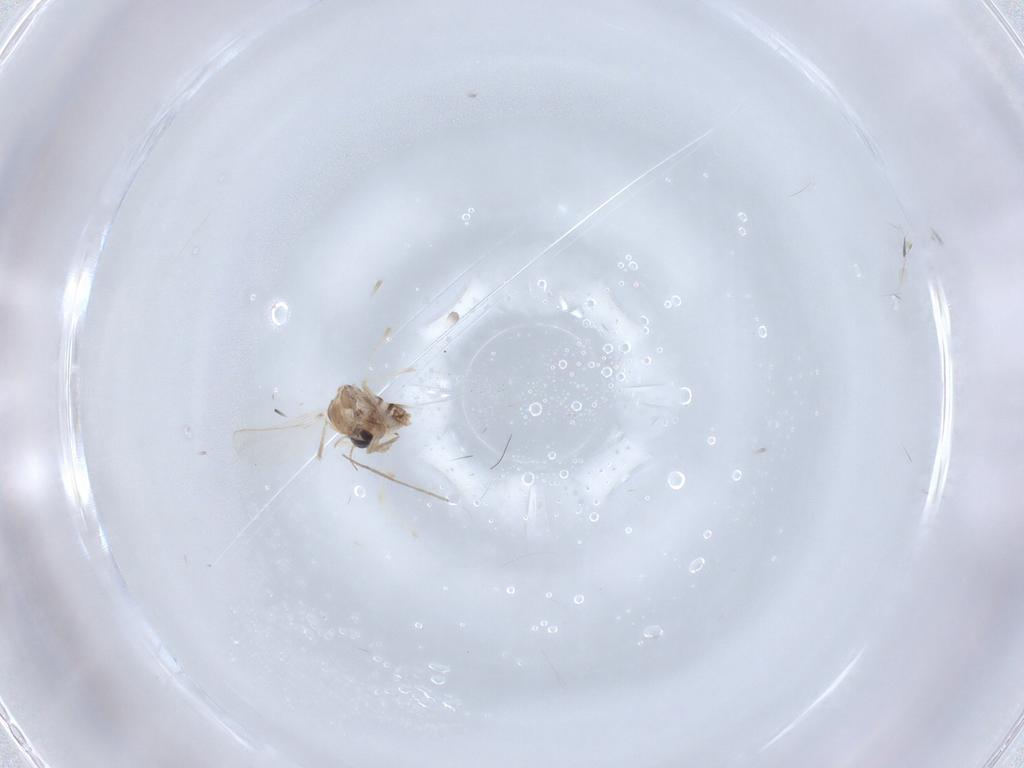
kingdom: Animalia
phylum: Arthropoda
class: Insecta
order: Diptera
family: Chironomidae
